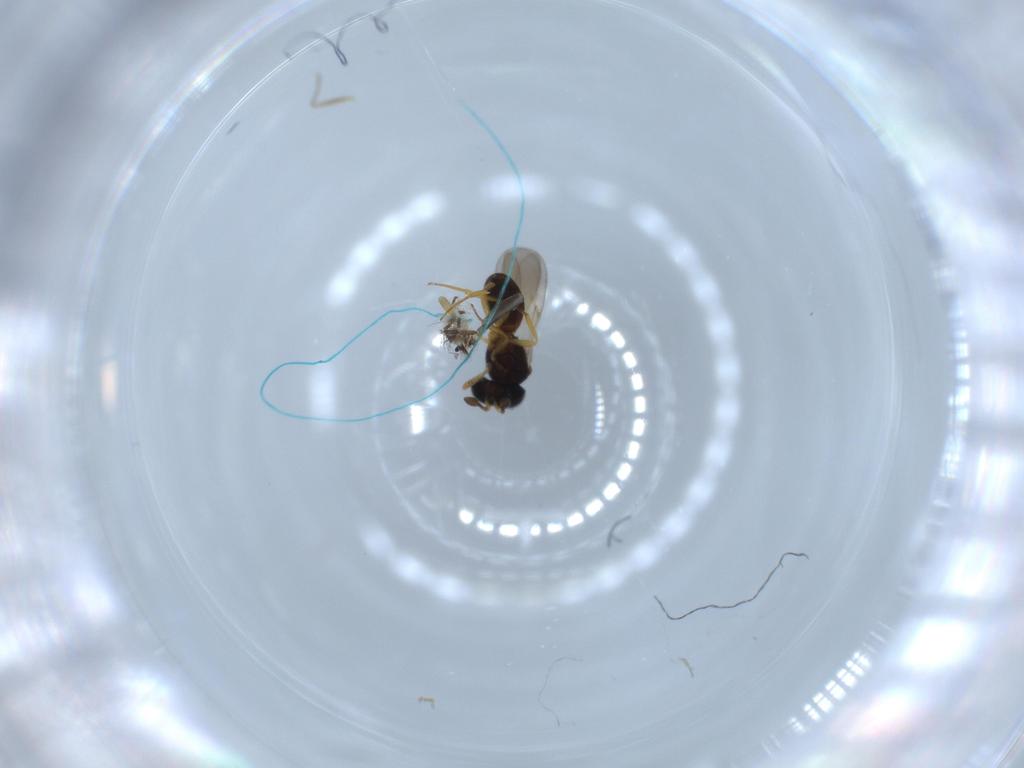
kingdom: Animalia
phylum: Arthropoda
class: Insecta
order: Hymenoptera
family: Scelionidae
